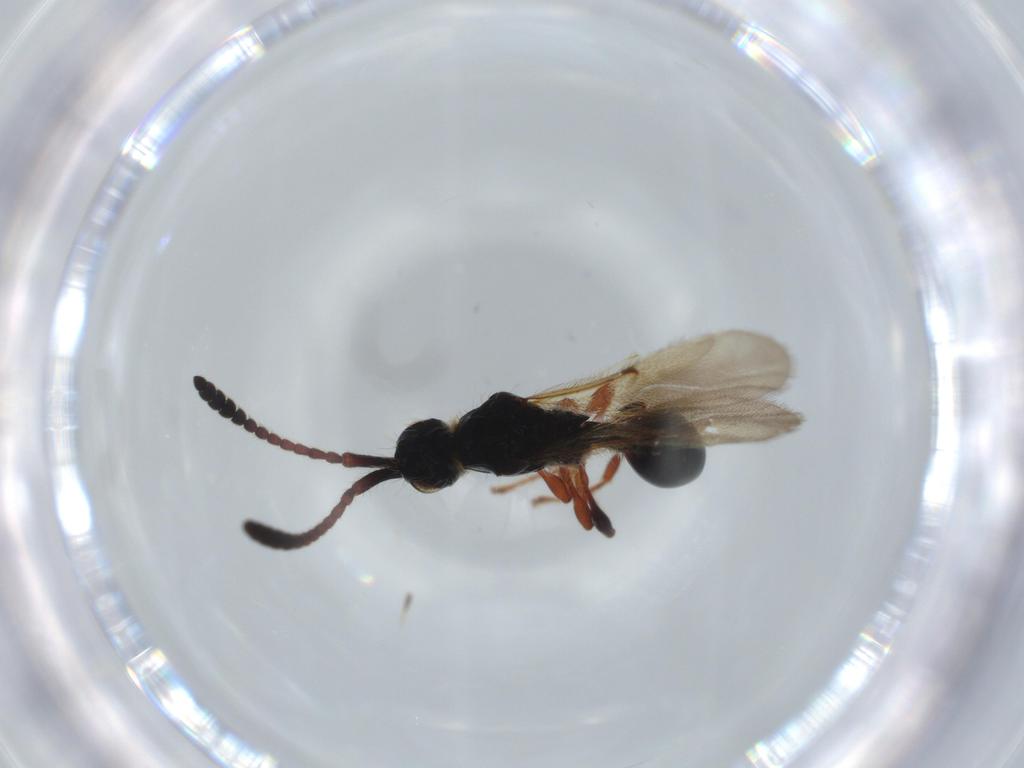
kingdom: Animalia
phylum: Arthropoda
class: Insecta
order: Hymenoptera
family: Diapriidae
